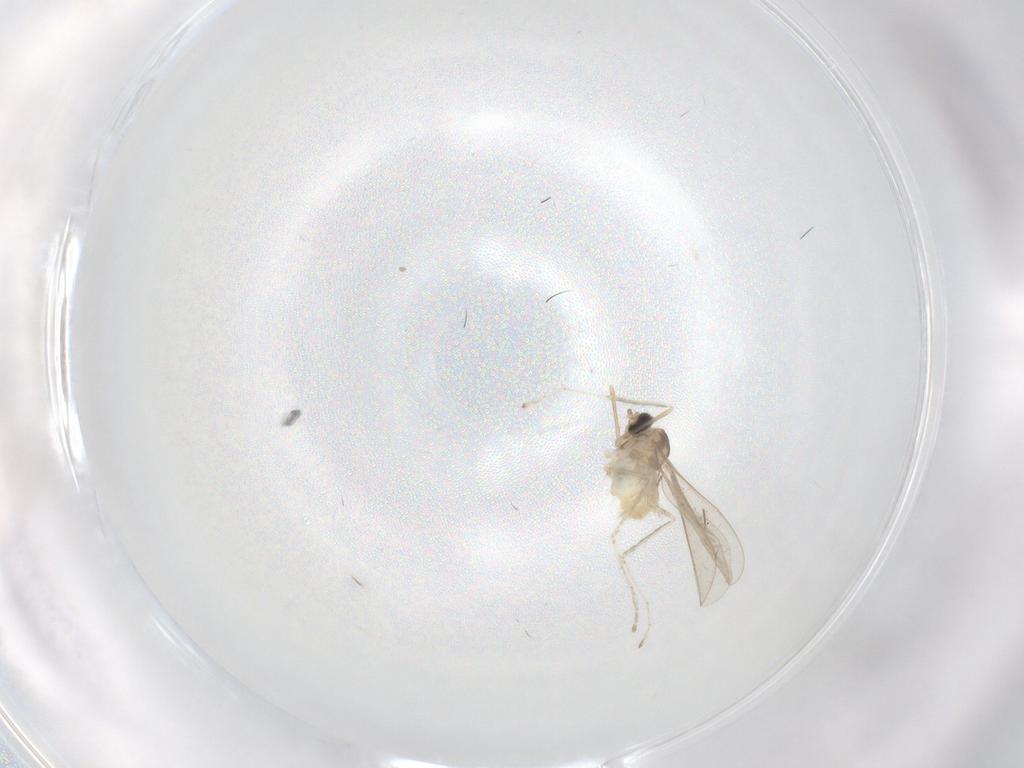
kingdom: Animalia
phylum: Arthropoda
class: Insecta
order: Diptera
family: Cecidomyiidae
